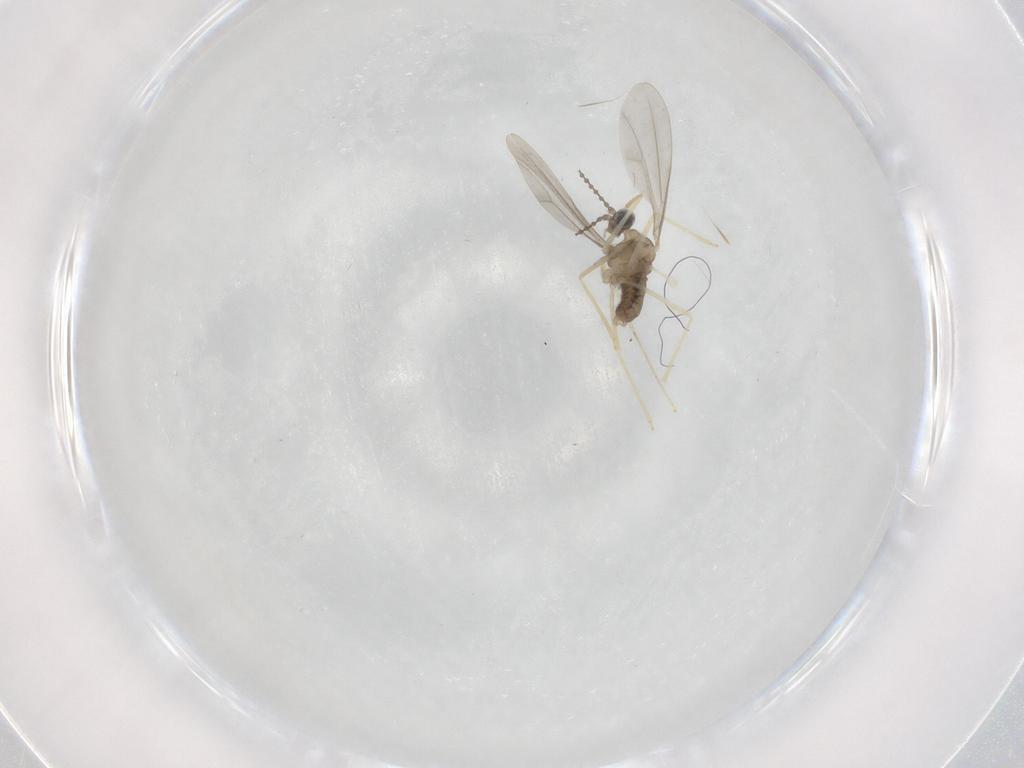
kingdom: Animalia
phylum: Arthropoda
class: Insecta
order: Diptera
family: Cecidomyiidae
